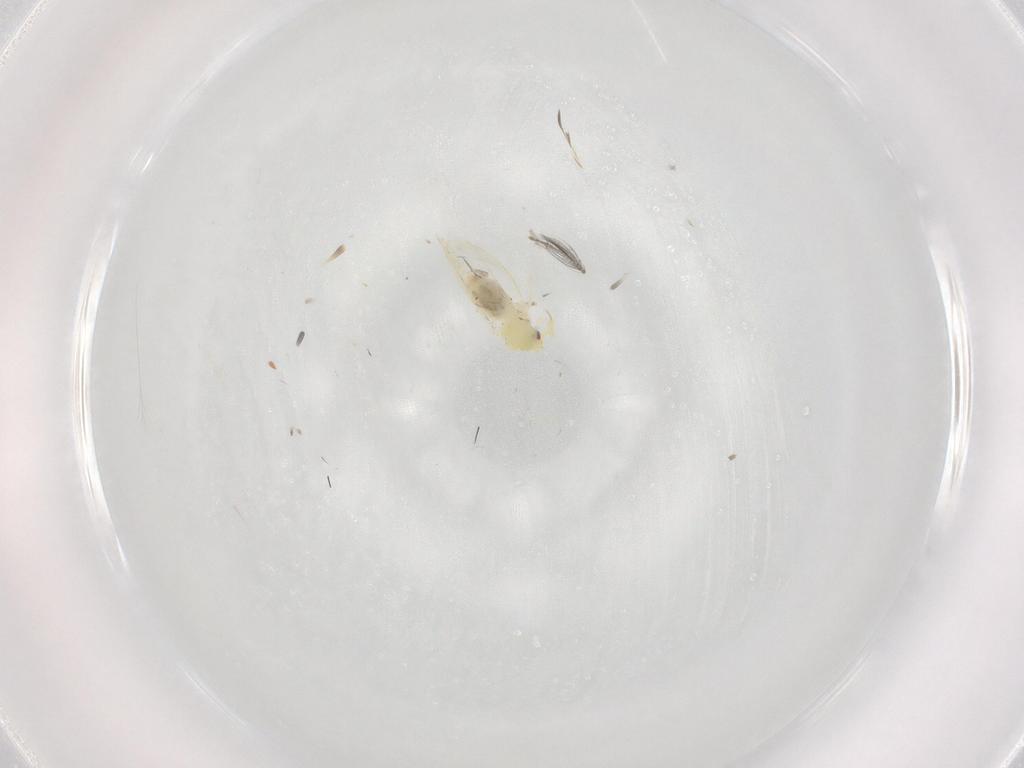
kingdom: Animalia
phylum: Arthropoda
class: Insecta
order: Hemiptera
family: Aleyrodidae
